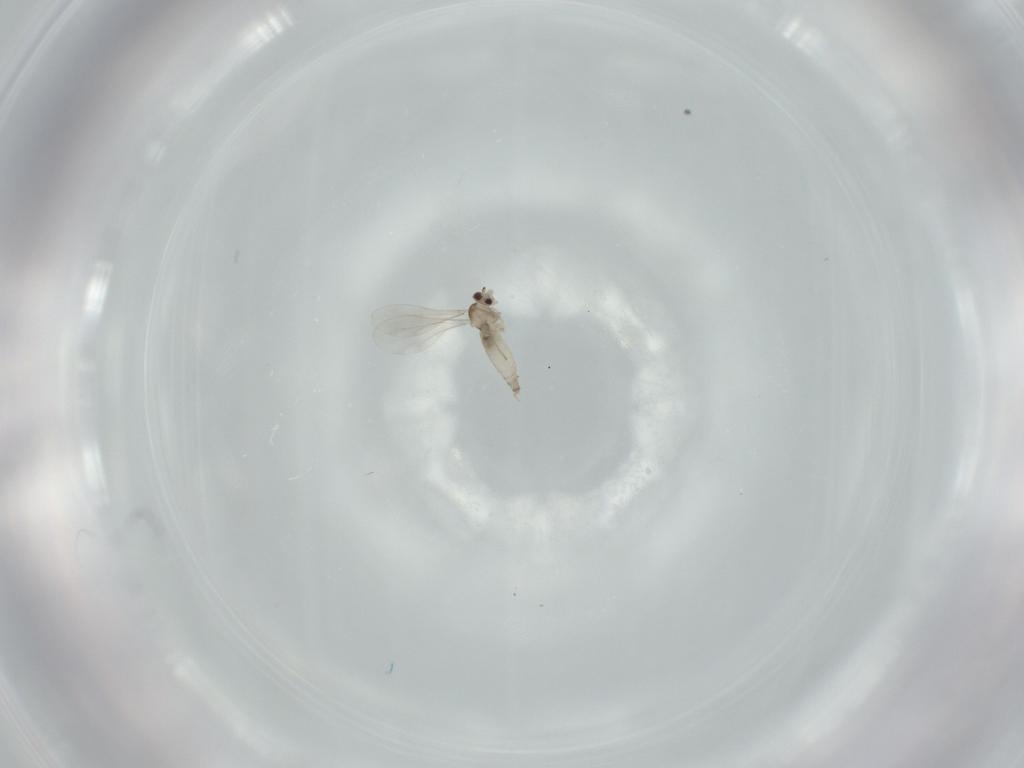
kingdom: Animalia
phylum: Arthropoda
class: Insecta
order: Diptera
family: Cecidomyiidae
